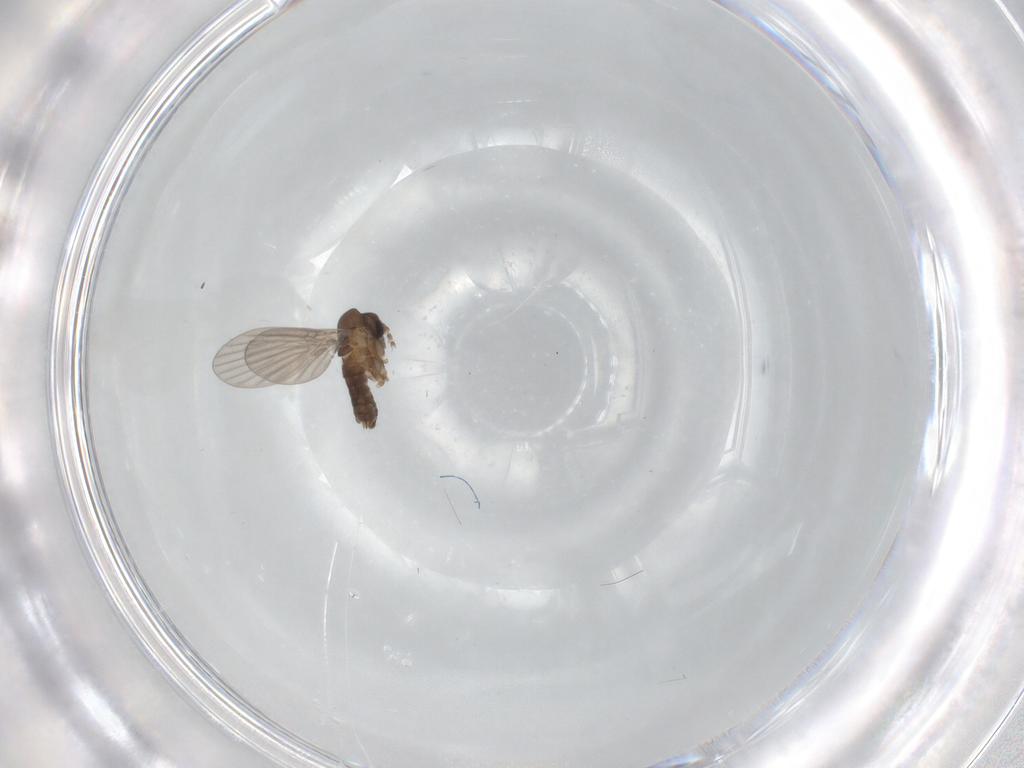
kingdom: Animalia
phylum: Arthropoda
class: Insecta
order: Diptera
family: Cecidomyiidae
